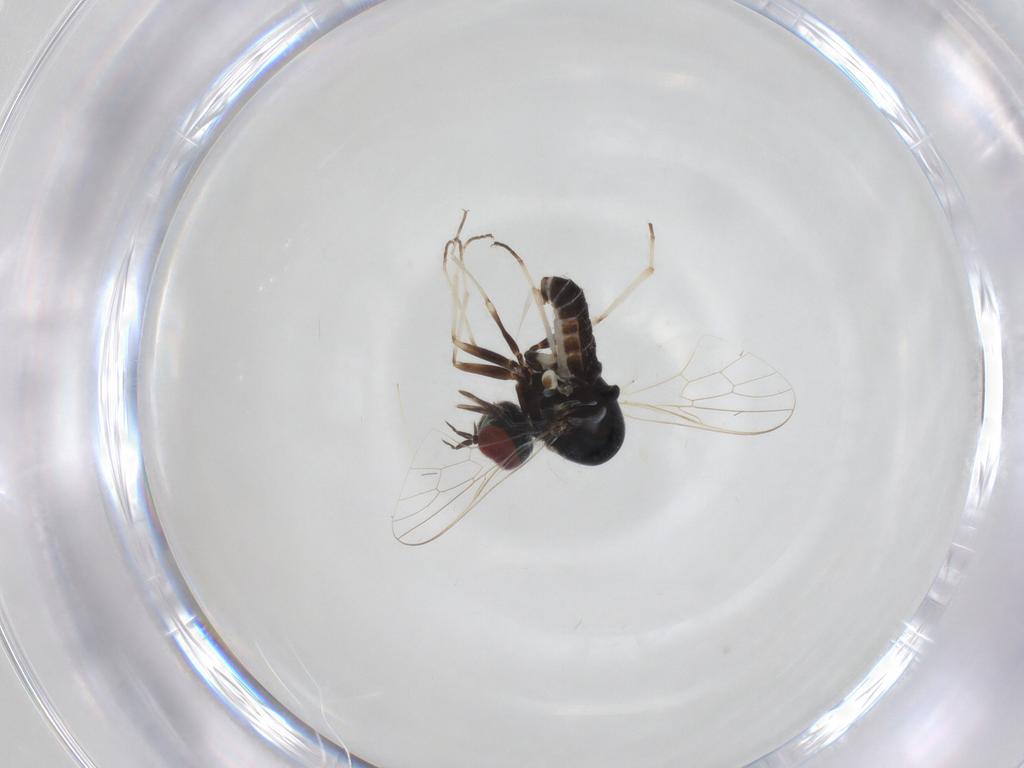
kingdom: Animalia
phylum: Arthropoda
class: Insecta
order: Diptera
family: Mythicomyiidae
